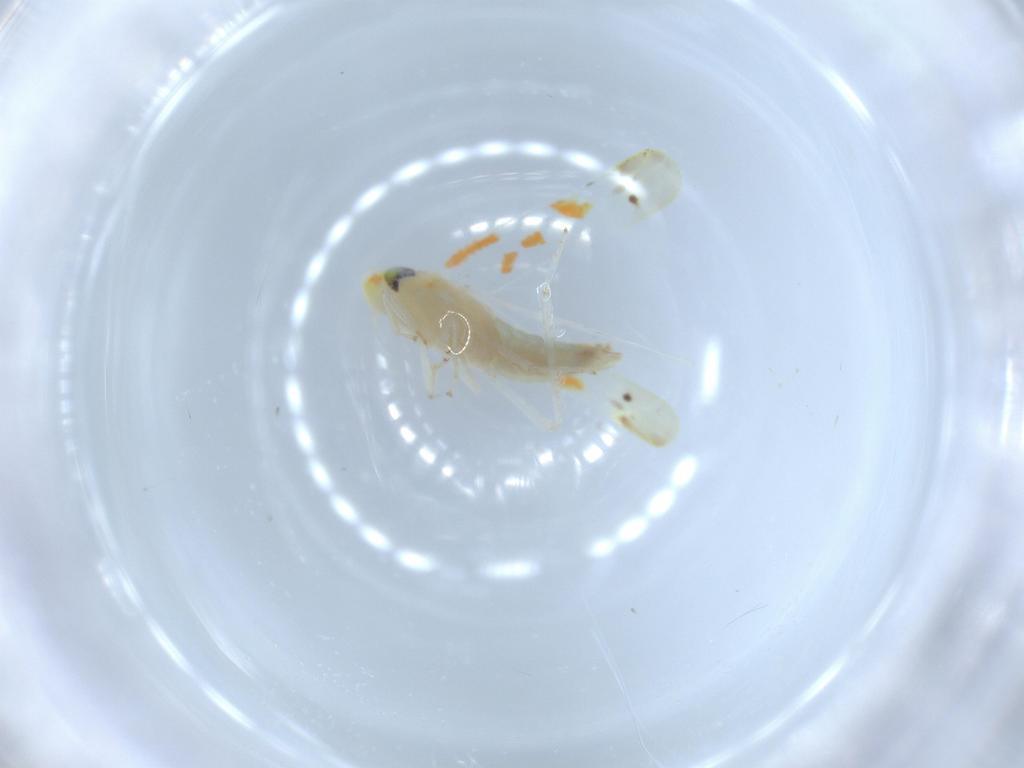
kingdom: Animalia
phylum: Arthropoda
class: Insecta
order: Hemiptera
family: Cicadellidae
